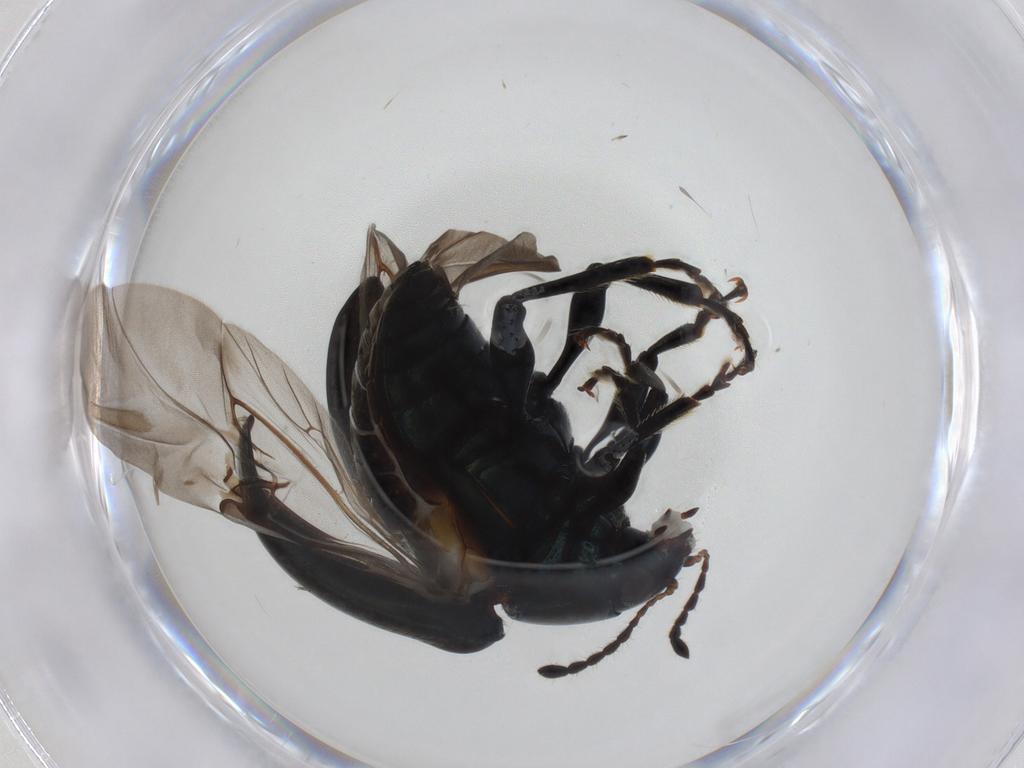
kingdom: Animalia
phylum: Arthropoda
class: Insecta
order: Coleoptera
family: Chrysomelidae
